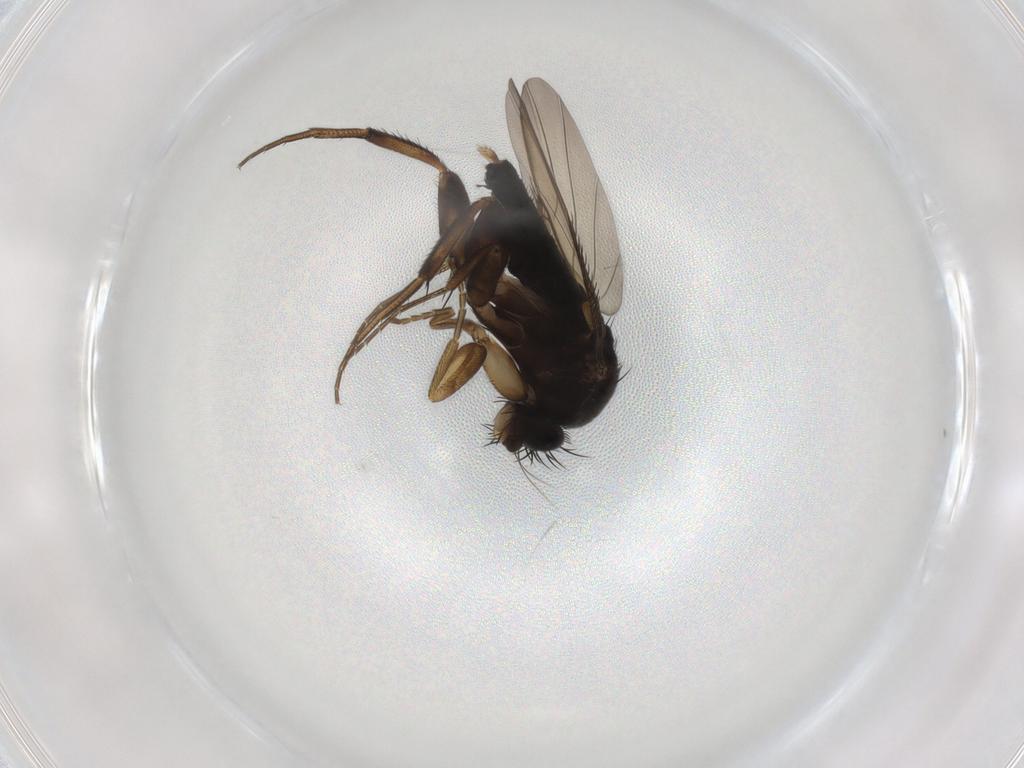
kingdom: Animalia
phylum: Arthropoda
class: Insecta
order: Diptera
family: Phoridae
